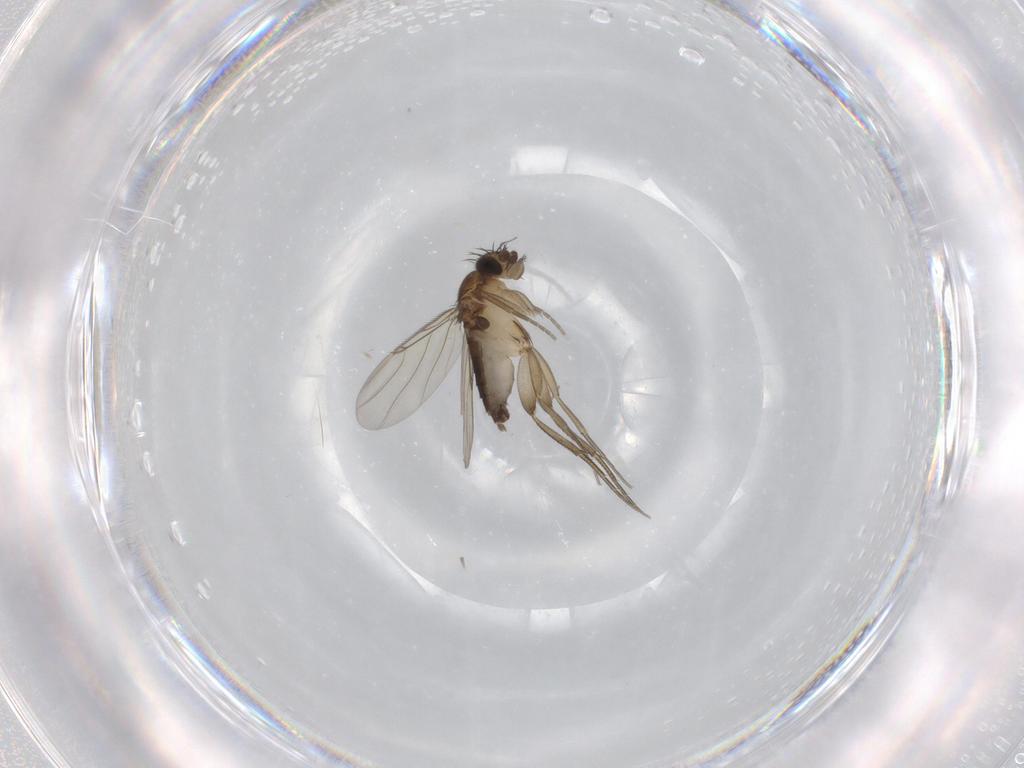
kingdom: Animalia
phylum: Arthropoda
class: Insecta
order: Diptera
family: Phoridae
